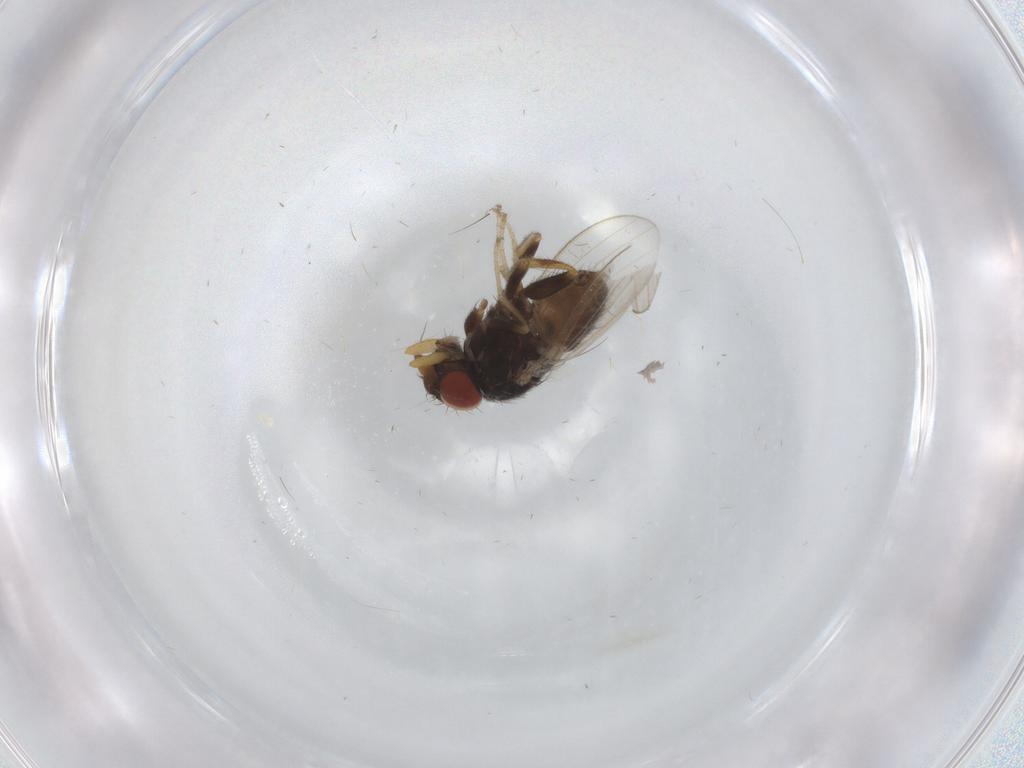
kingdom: Animalia
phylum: Arthropoda
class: Insecta
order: Diptera
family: Milichiidae
